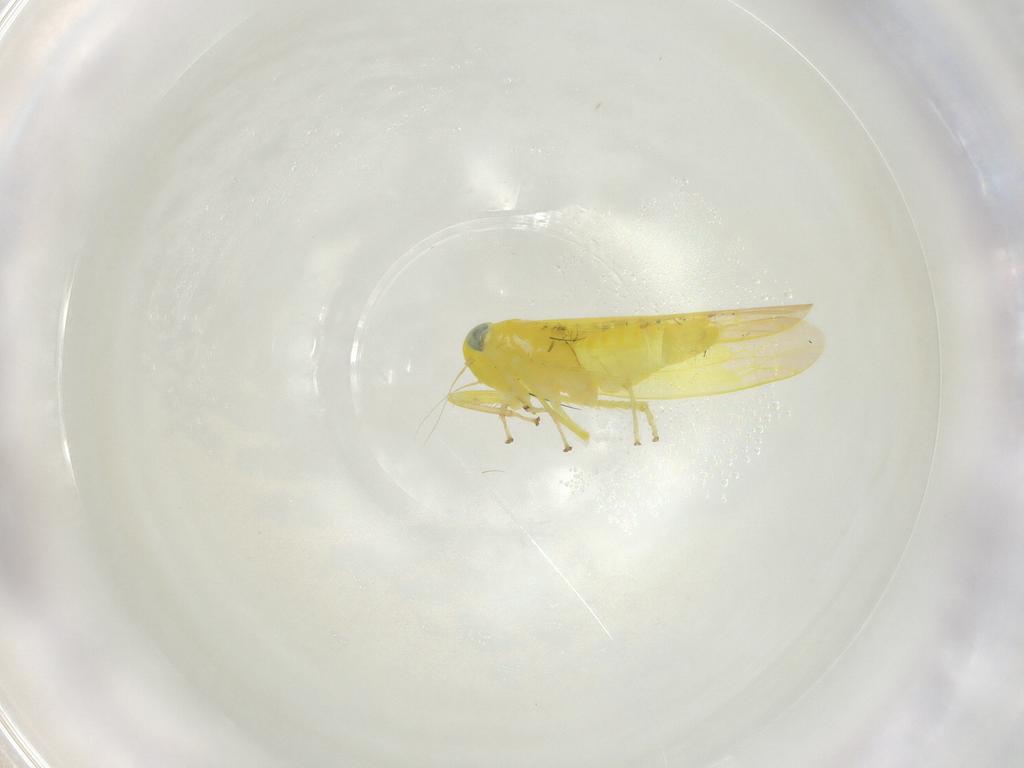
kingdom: Animalia
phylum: Arthropoda
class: Insecta
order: Hemiptera
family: Cicadellidae
